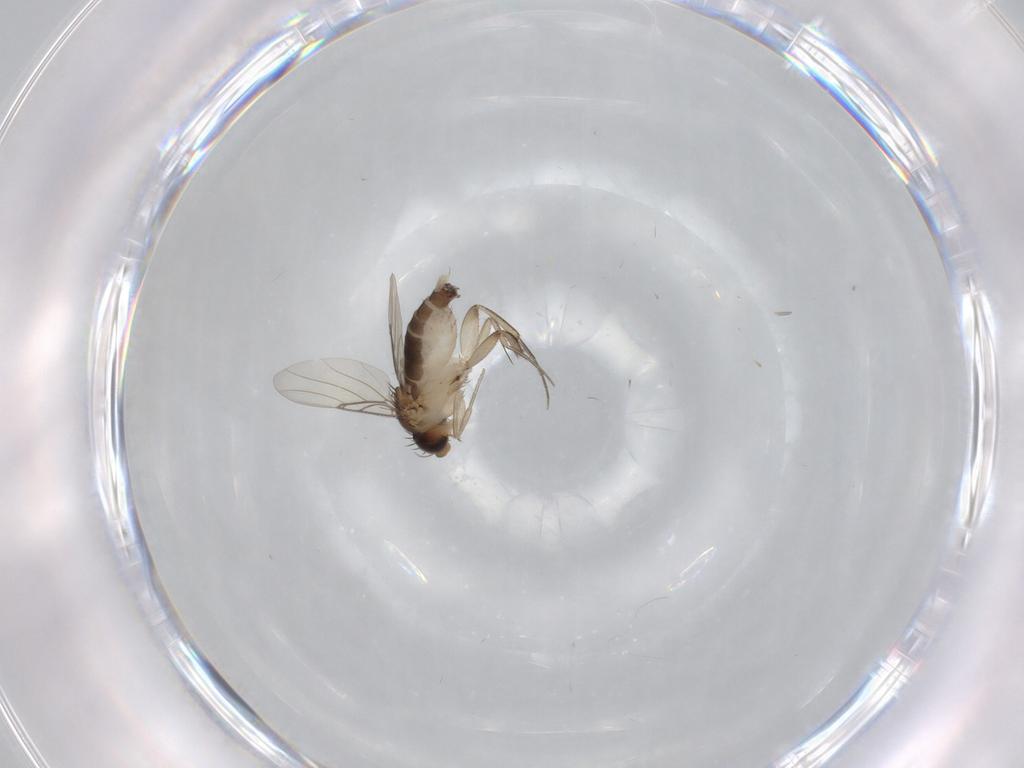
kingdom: Animalia
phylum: Arthropoda
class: Insecta
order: Diptera
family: Phoridae
